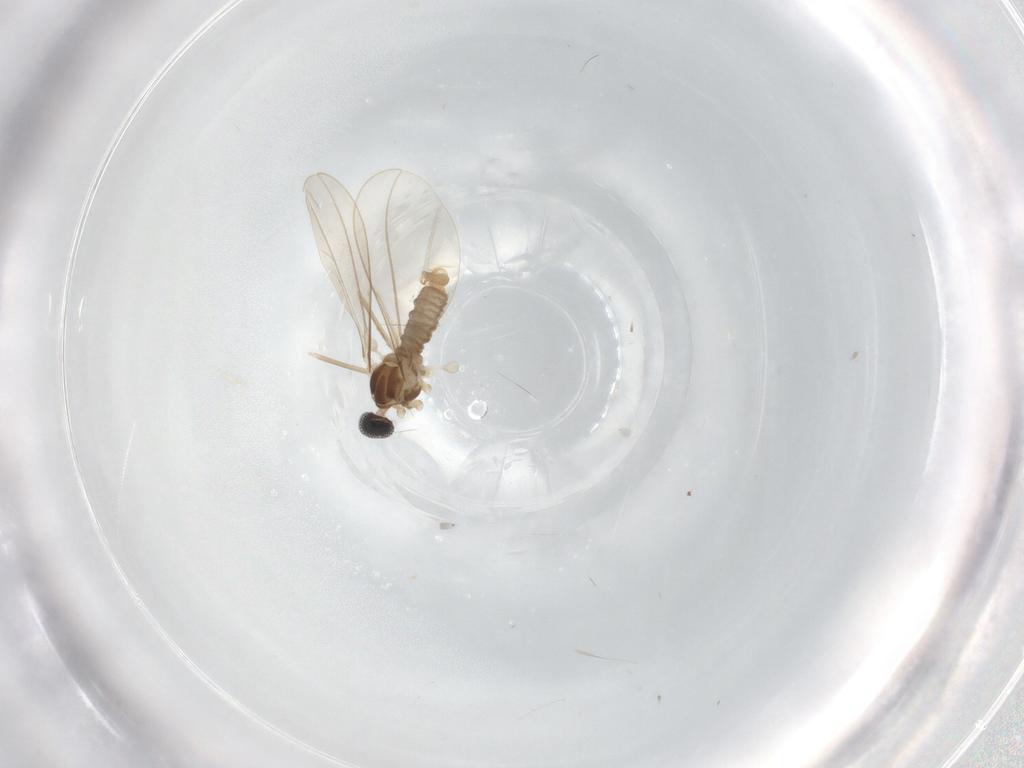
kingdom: Animalia
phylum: Arthropoda
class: Insecta
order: Diptera
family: Cecidomyiidae
